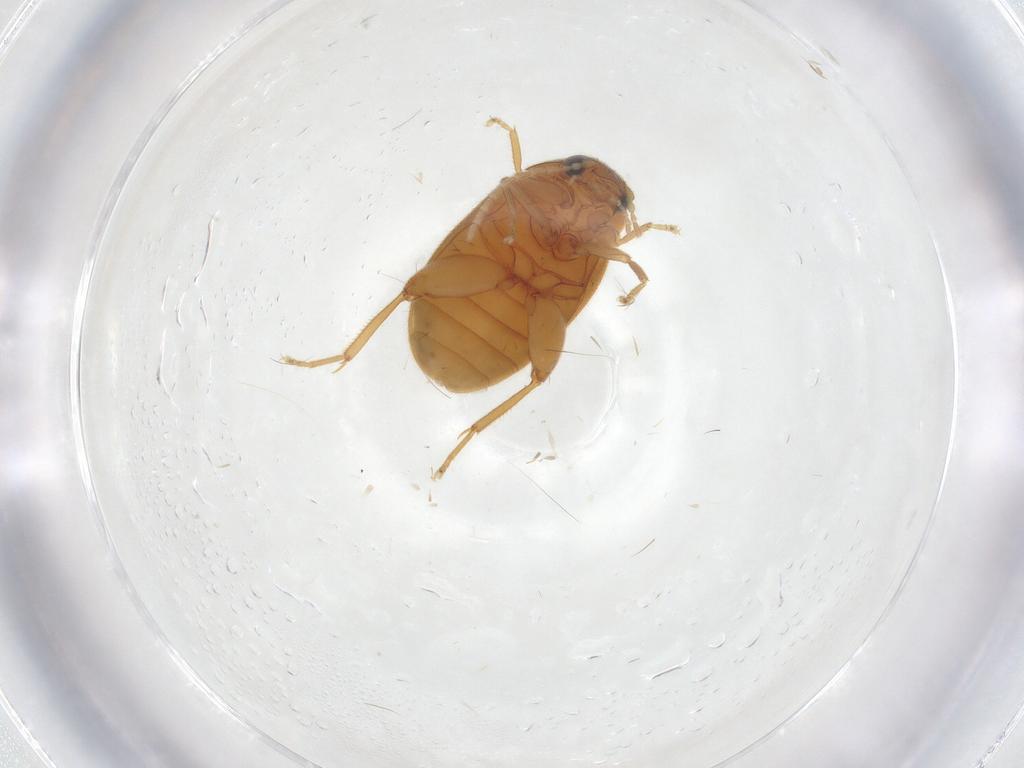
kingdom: Animalia
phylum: Arthropoda
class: Insecta
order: Coleoptera
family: Scirtidae
